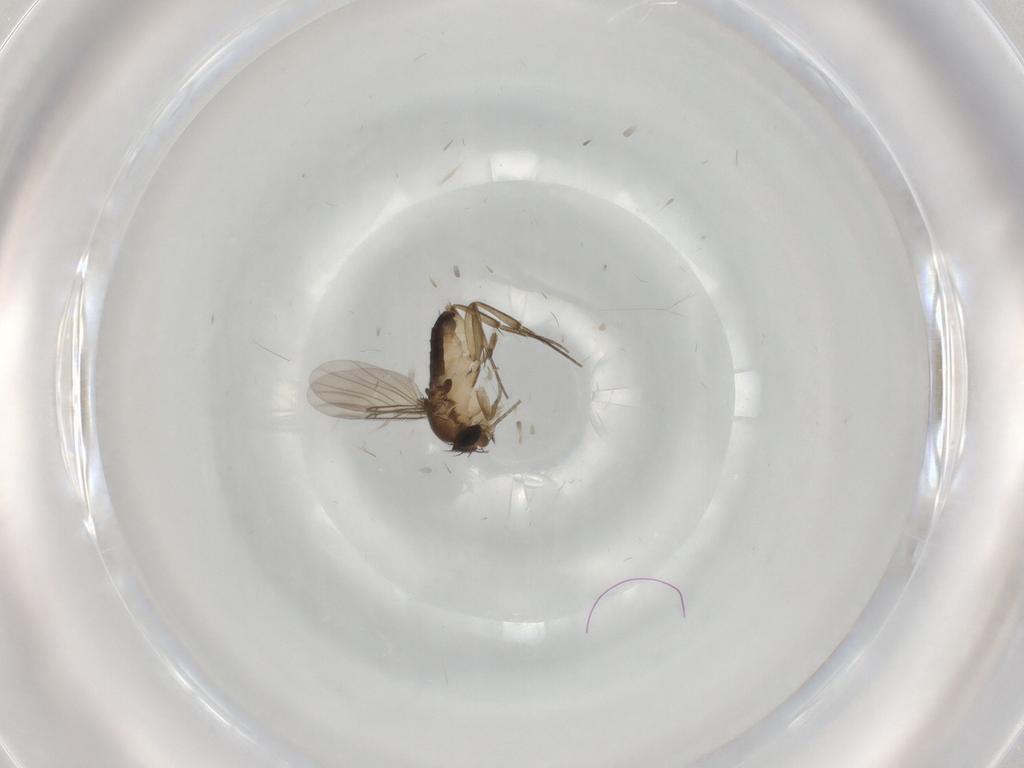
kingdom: Animalia
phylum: Arthropoda
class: Insecta
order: Diptera
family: Phoridae
